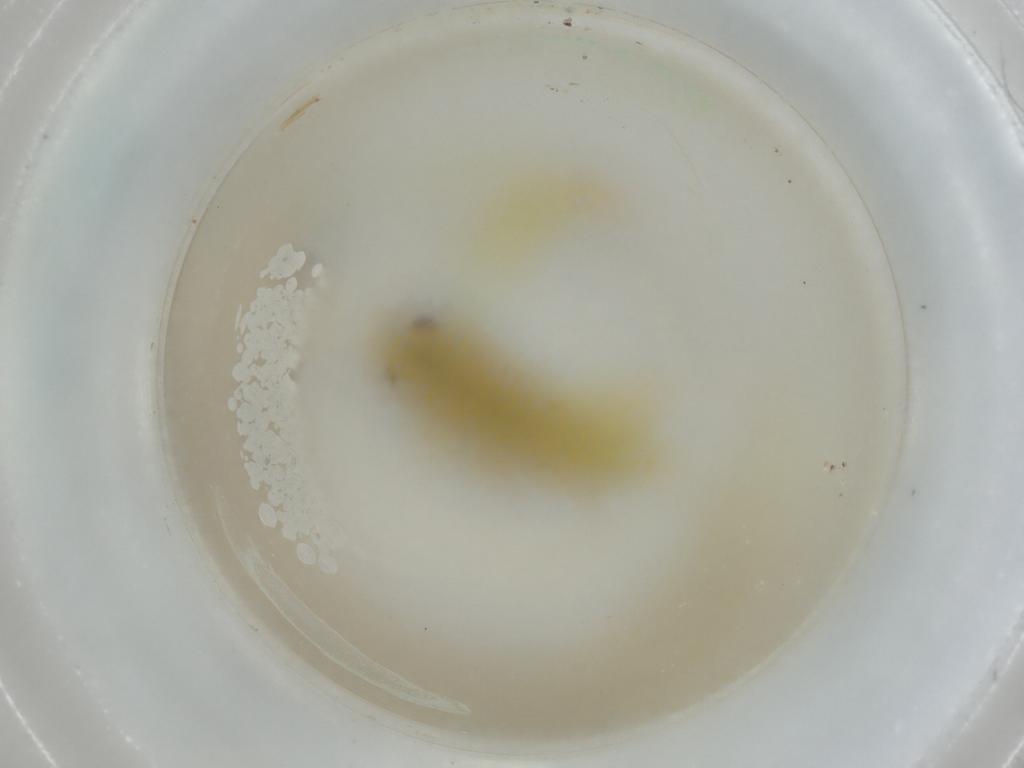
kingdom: Animalia
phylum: Arthropoda
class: Insecta
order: Hemiptera
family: Cicadellidae
